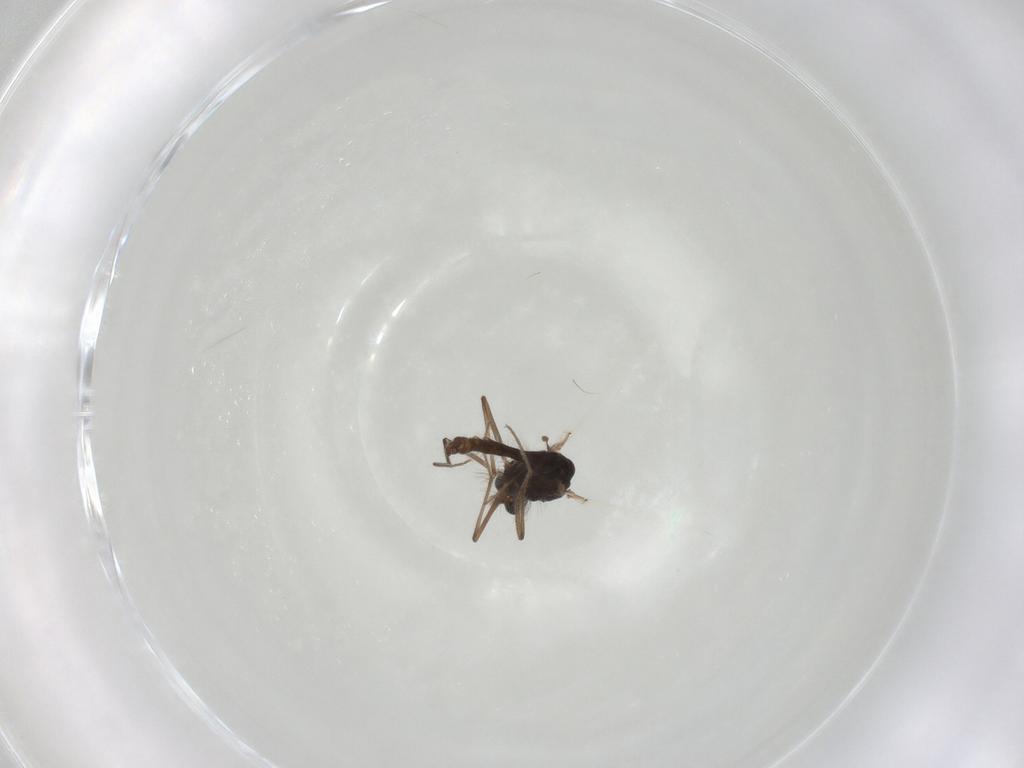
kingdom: Animalia
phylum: Arthropoda
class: Insecta
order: Diptera
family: Chironomidae
